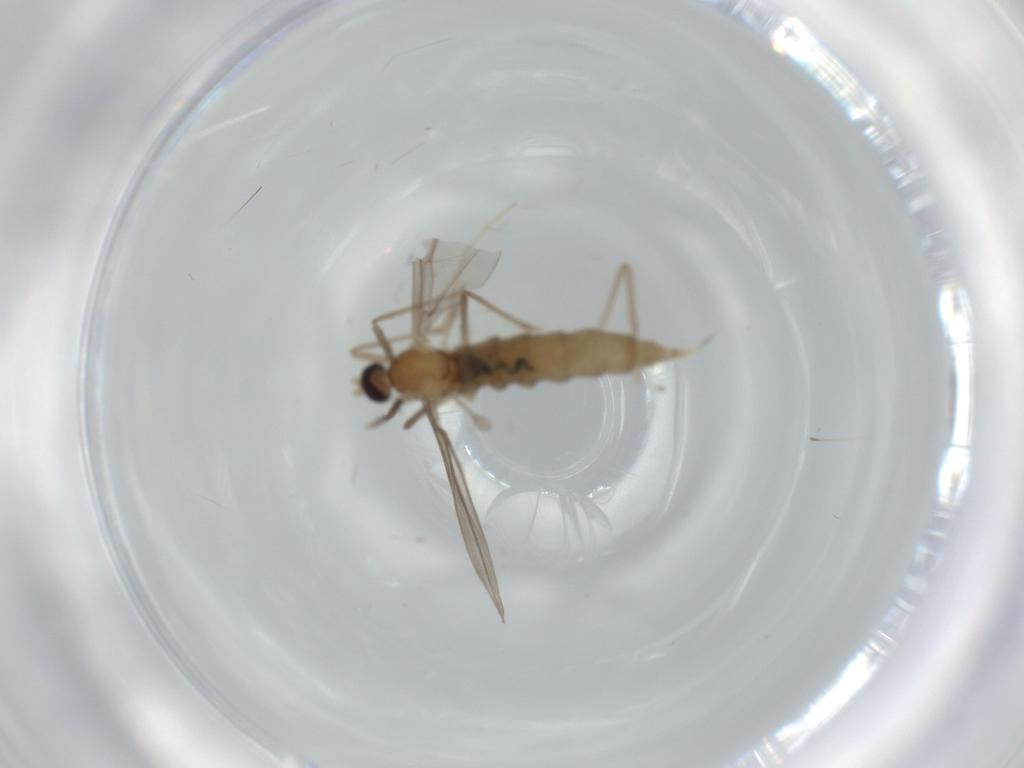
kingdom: Animalia
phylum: Arthropoda
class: Insecta
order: Diptera
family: Cecidomyiidae
